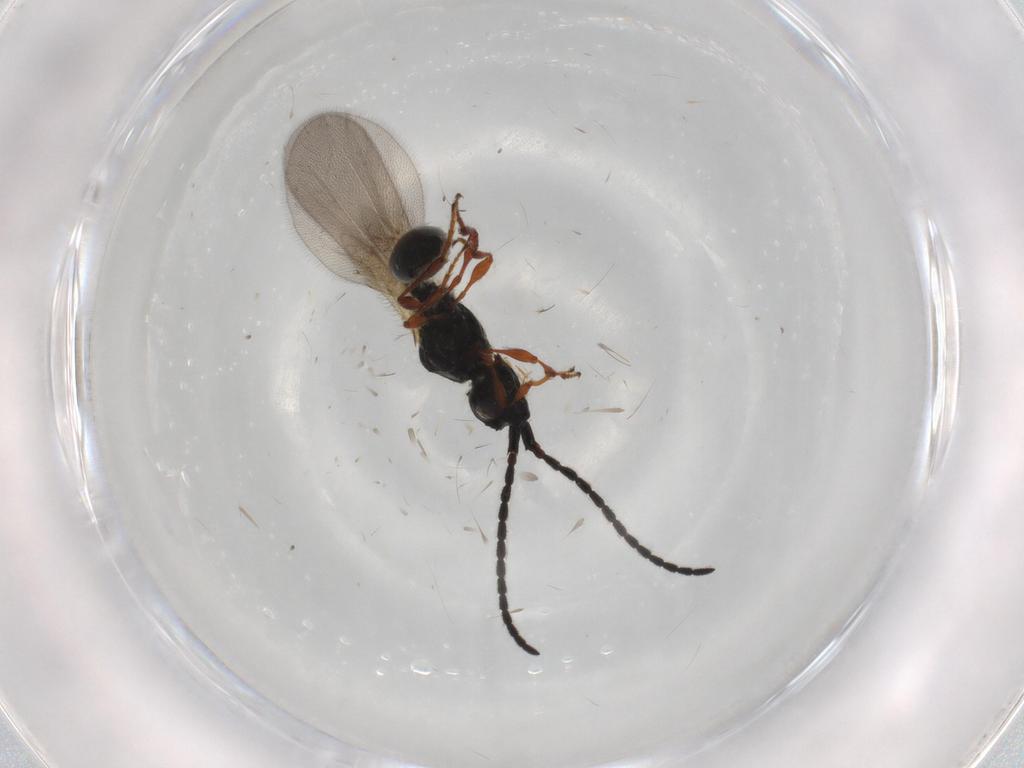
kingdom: Animalia
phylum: Arthropoda
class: Insecta
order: Hymenoptera
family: Diapriidae
